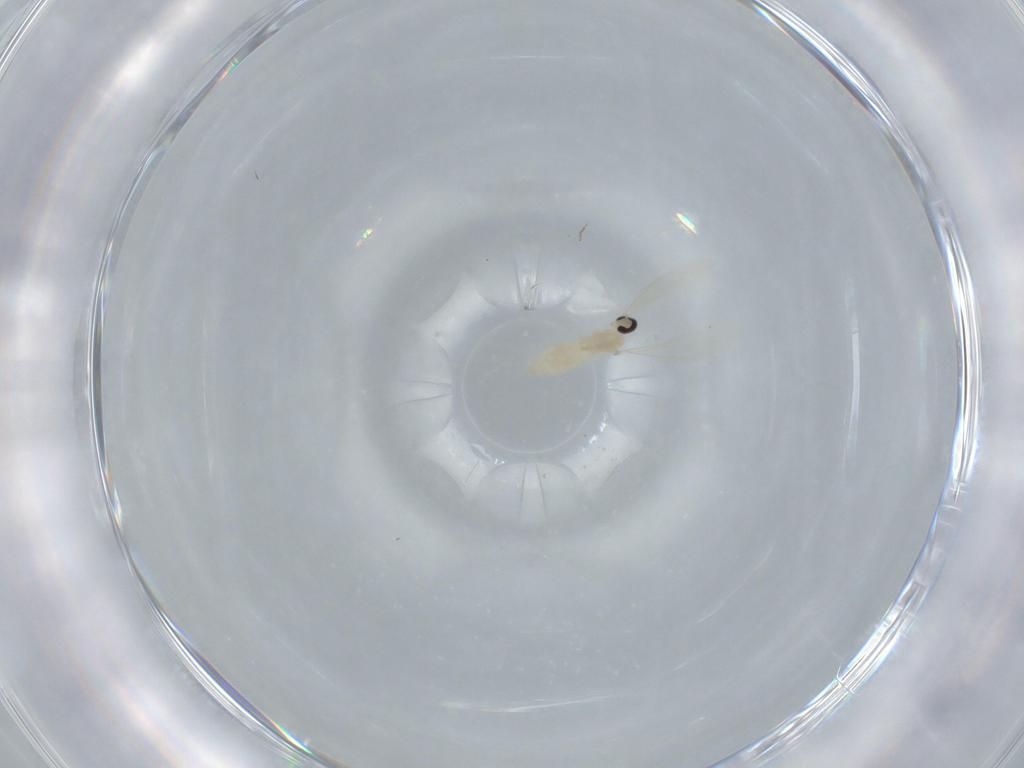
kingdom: Animalia
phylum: Arthropoda
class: Insecta
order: Diptera
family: Cecidomyiidae
